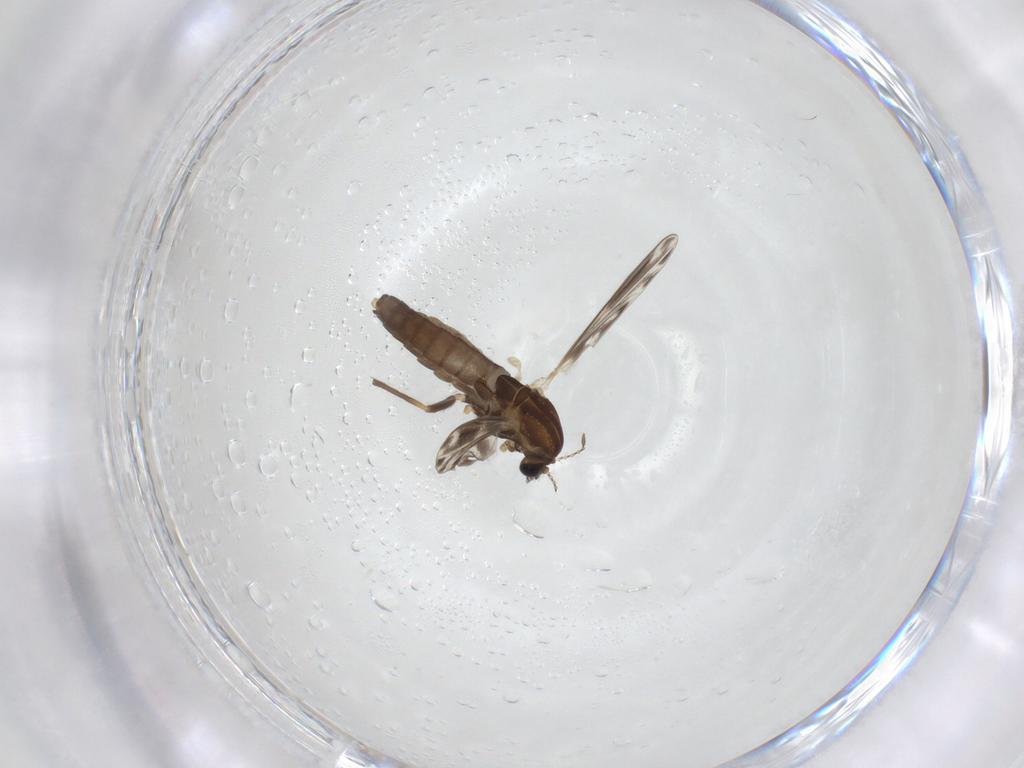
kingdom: Animalia
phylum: Arthropoda
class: Insecta
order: Diptera
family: Chironomidae
